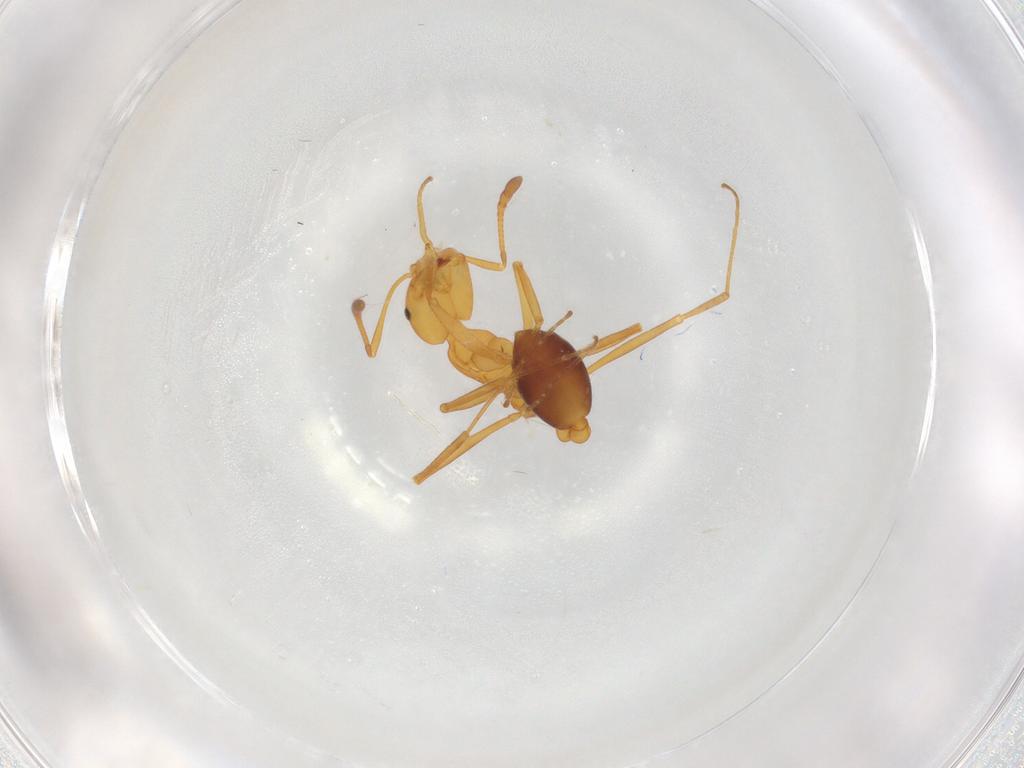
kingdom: Animalia
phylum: Arthropoda
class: Insecta
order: Hymenoptera
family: Formicidae
